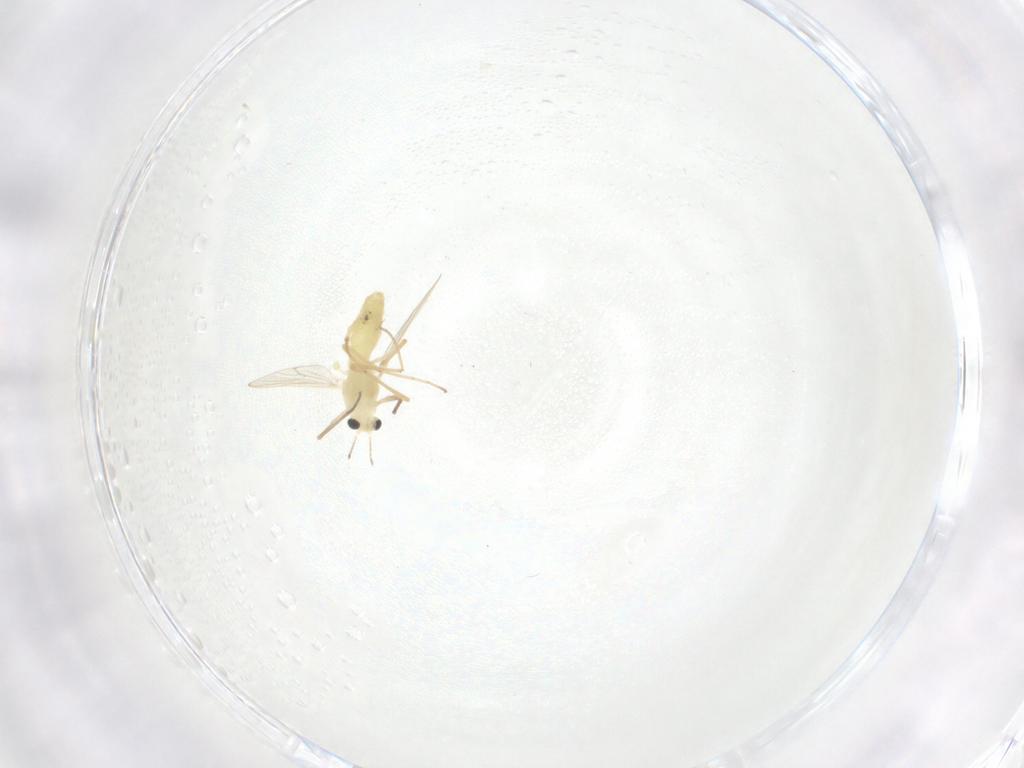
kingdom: Animalia
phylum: Arthropoda
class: Insecta
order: Diptera
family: Chironomidae
